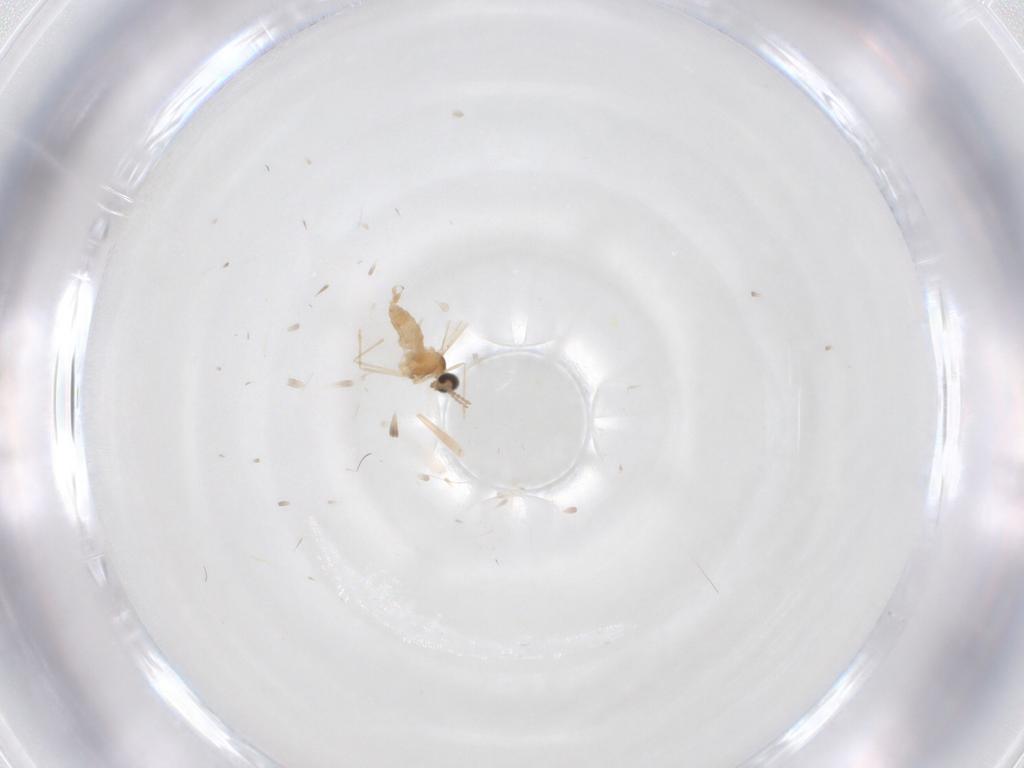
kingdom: Animalia
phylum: Arthropoda
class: Insecta
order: Diptera
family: Cecidomyiidae
